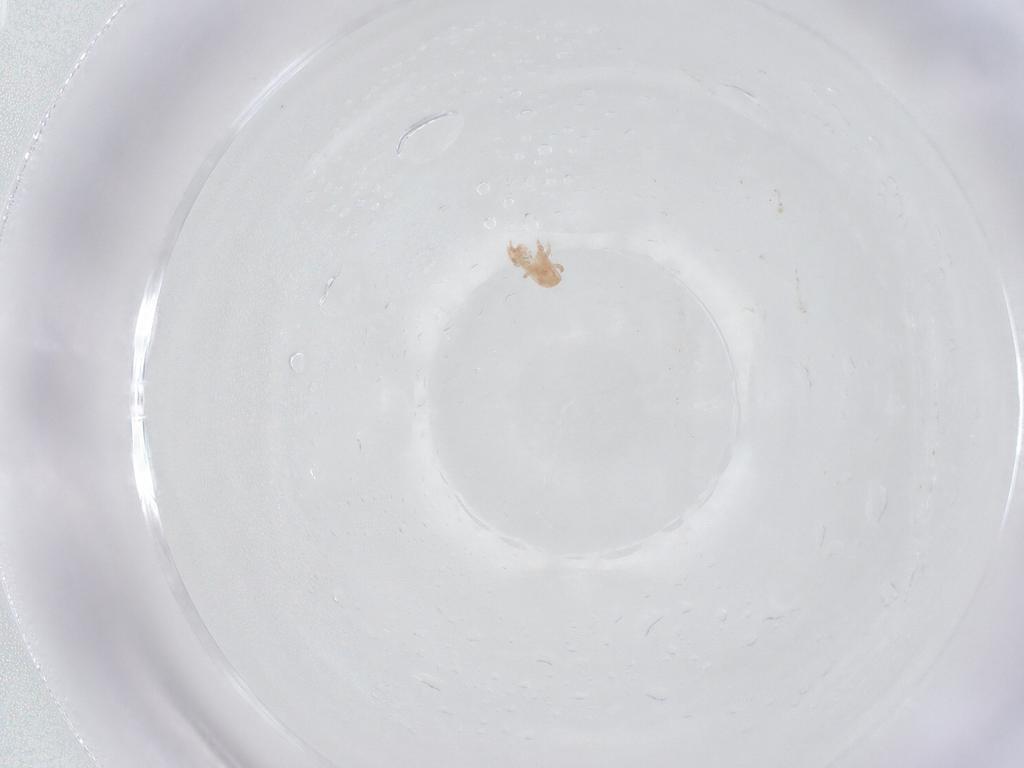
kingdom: Animalia
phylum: Arthropoda
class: Arachnida
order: Mesostigmata
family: Digamasellidae
